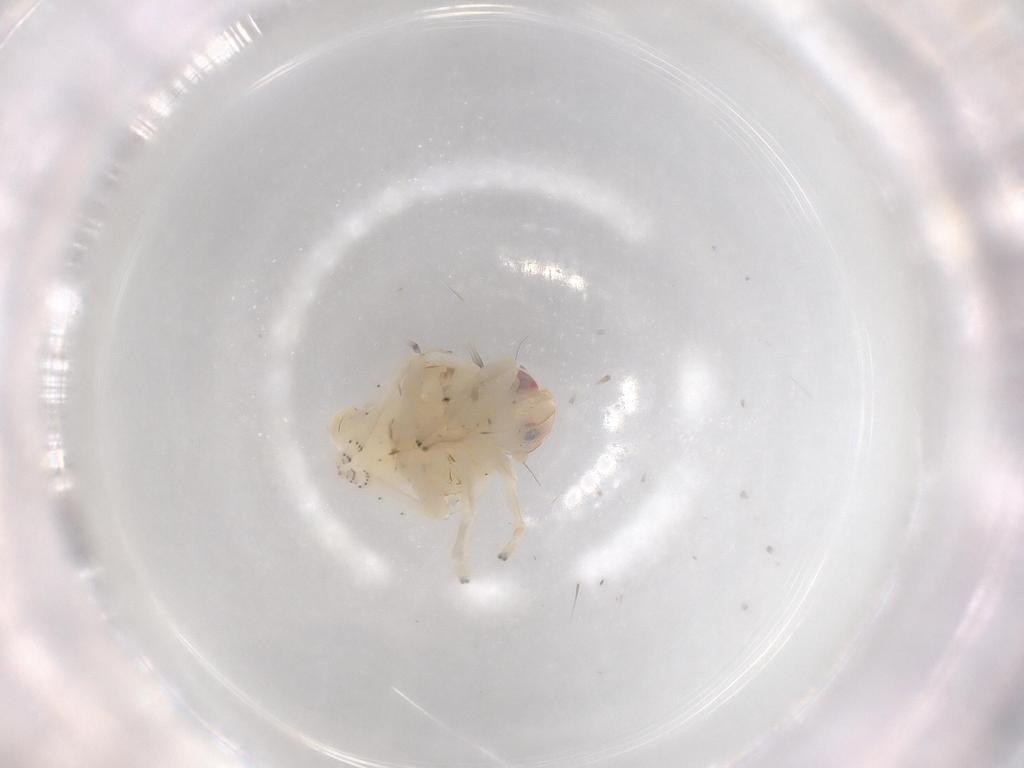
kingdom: Animalia
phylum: Arthropoda
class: Insecta
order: Hemiptera
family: Nogodinidae
